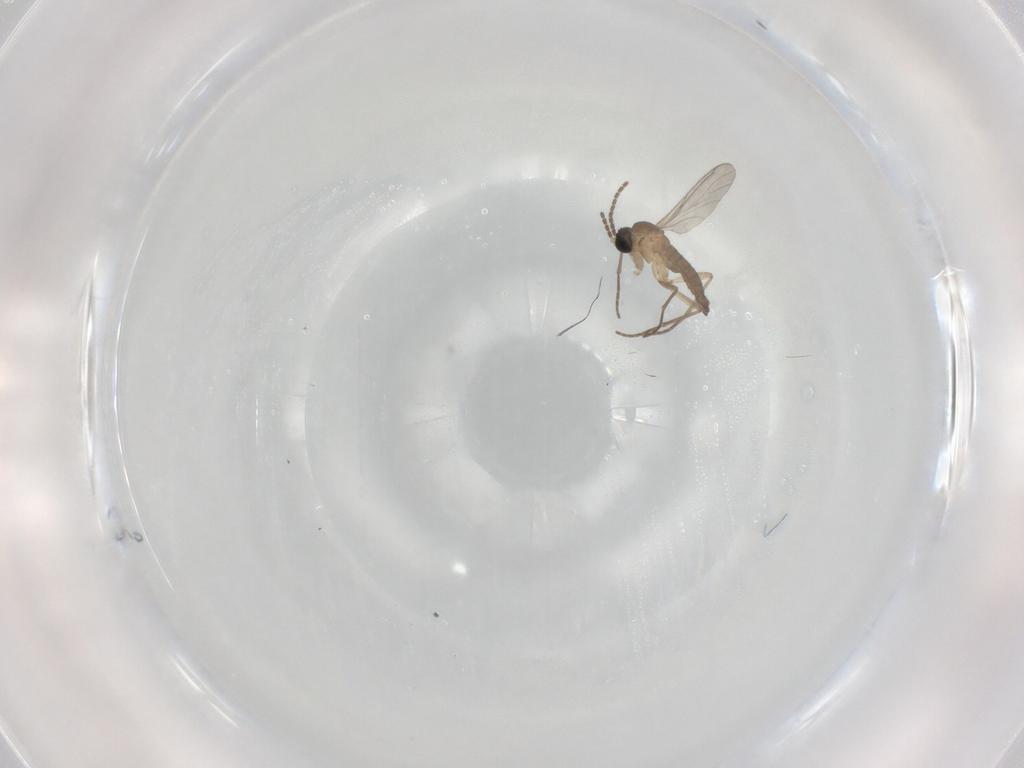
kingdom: Animalia
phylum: Arthropoda
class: Insecta
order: Diptera
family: Sciaridae
